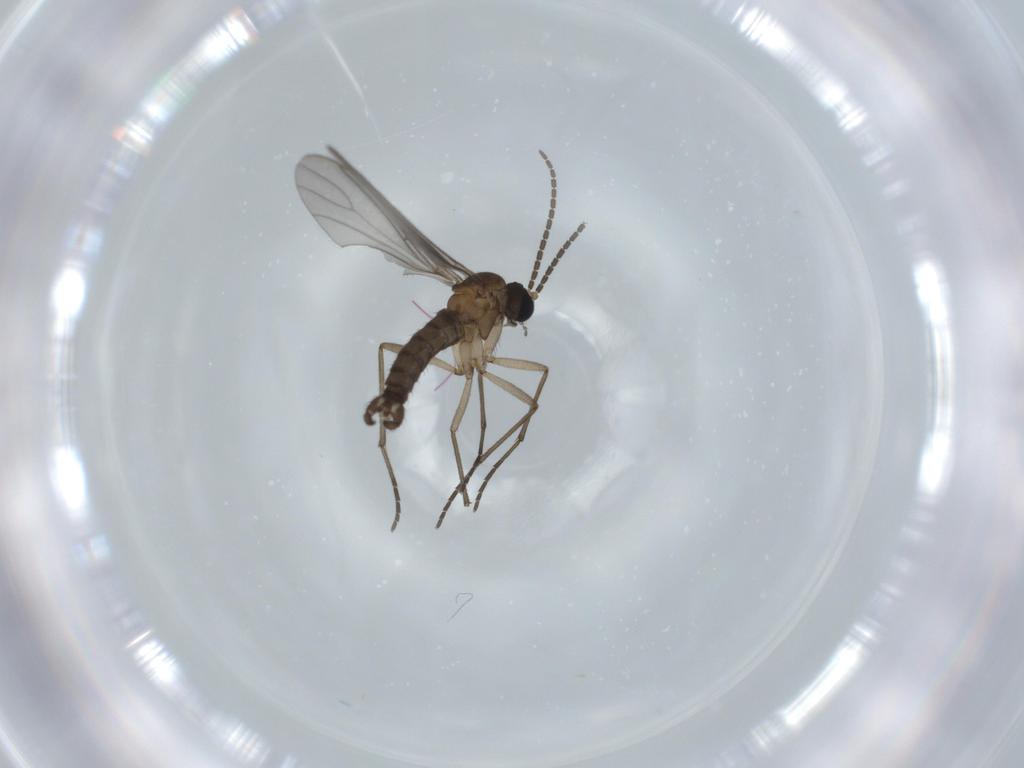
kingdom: Animalia
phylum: Arthropoda
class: Insecta
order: Diptera
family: Sciaridae
